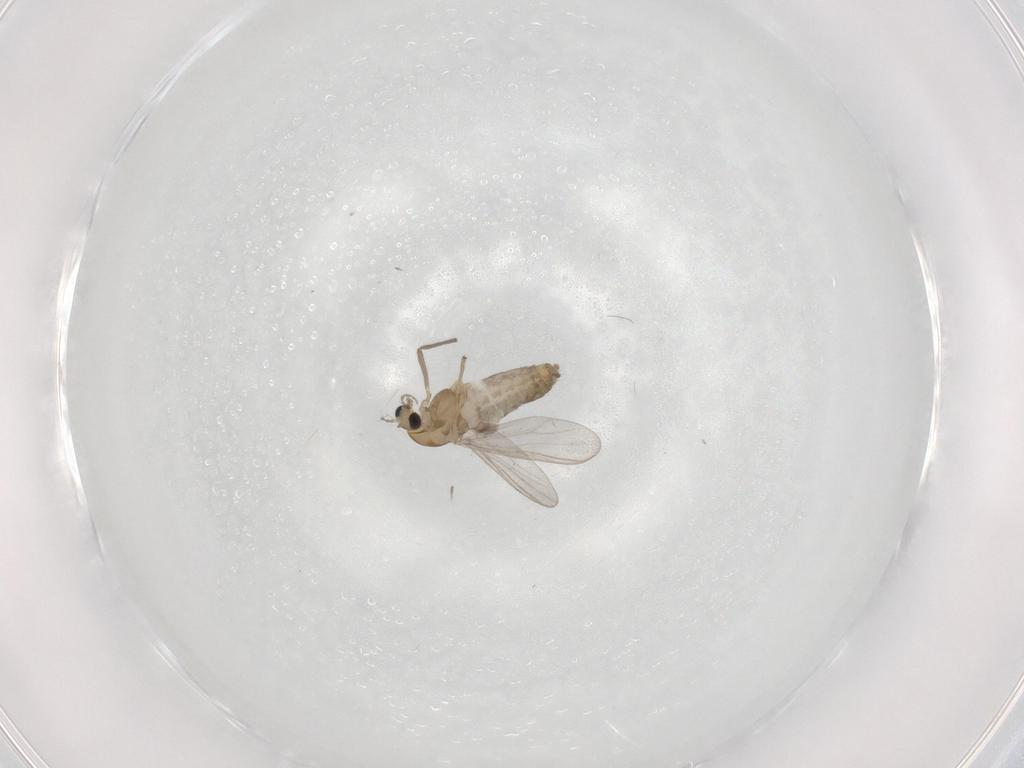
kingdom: Animalia
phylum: Arthropoda
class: Insecta
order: Diptera
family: Chironomidae
